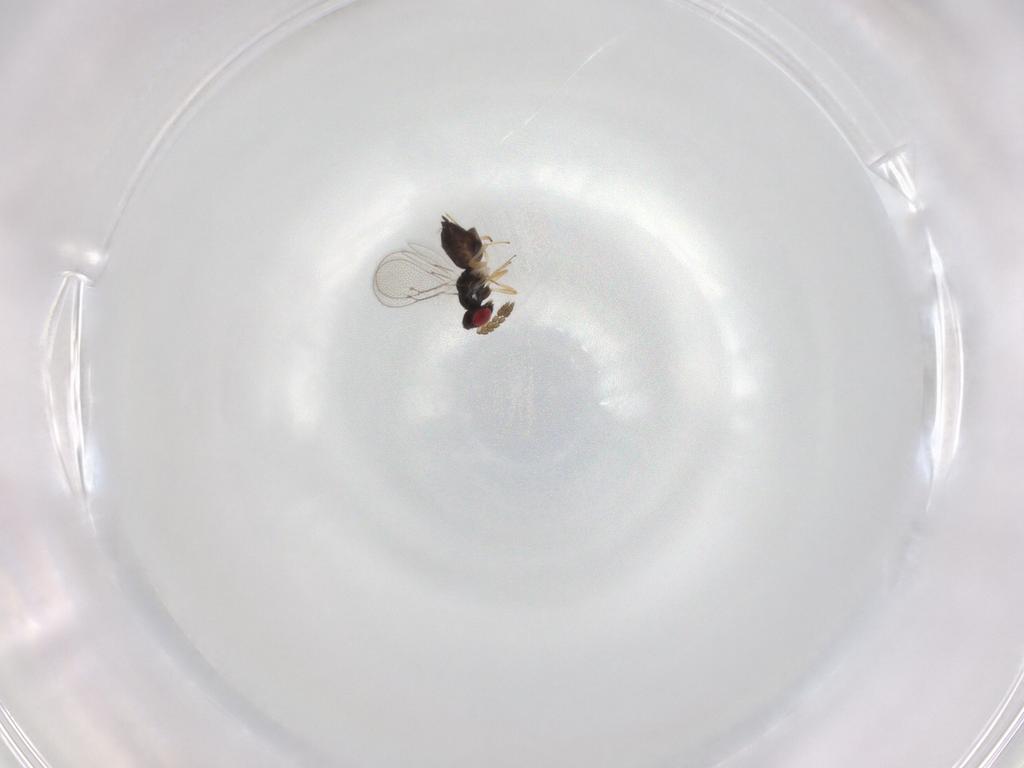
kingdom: Animalia
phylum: Arthropoda
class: Insecta
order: Hymenoptera
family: Eulophidae
